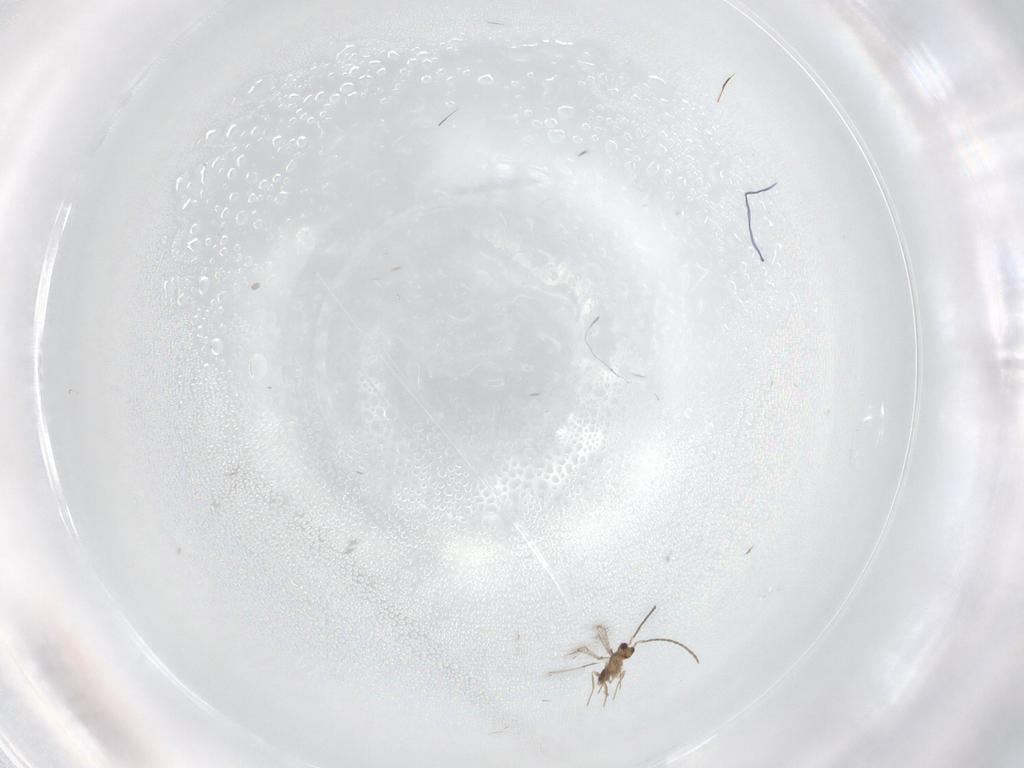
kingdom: Animalia
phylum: Arthropoda
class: Insecta
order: Hymenoptera
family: Mymaridae
